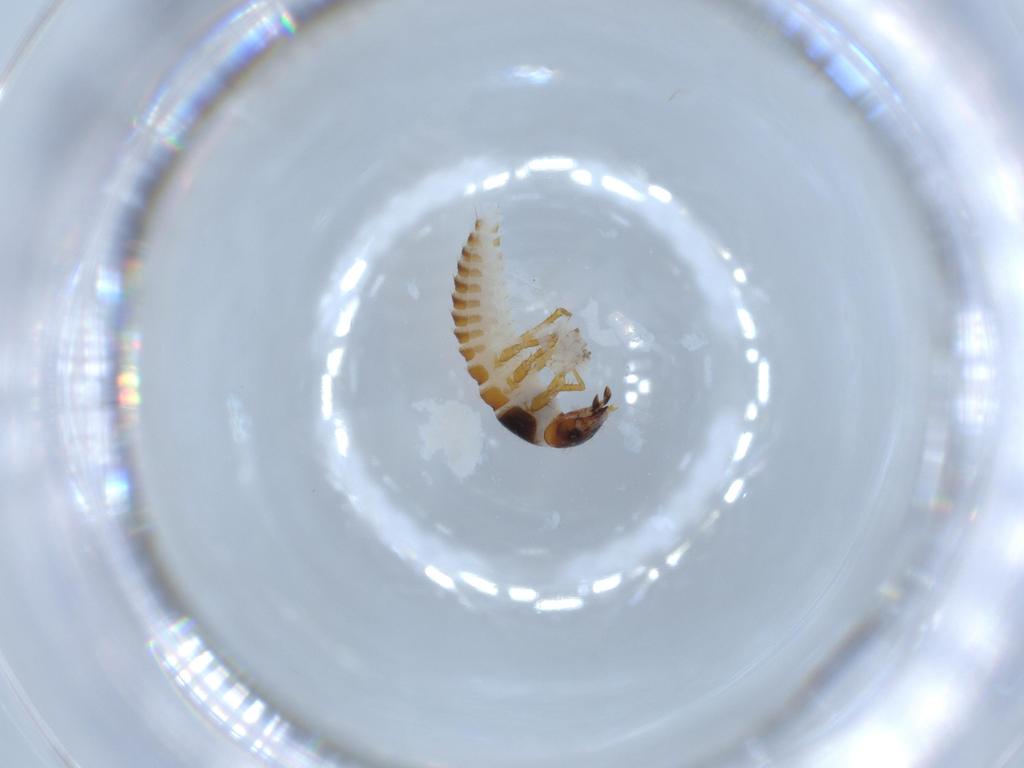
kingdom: Animalia
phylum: Arthropoda
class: Insecta
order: Coleoptera
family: Meloidae
